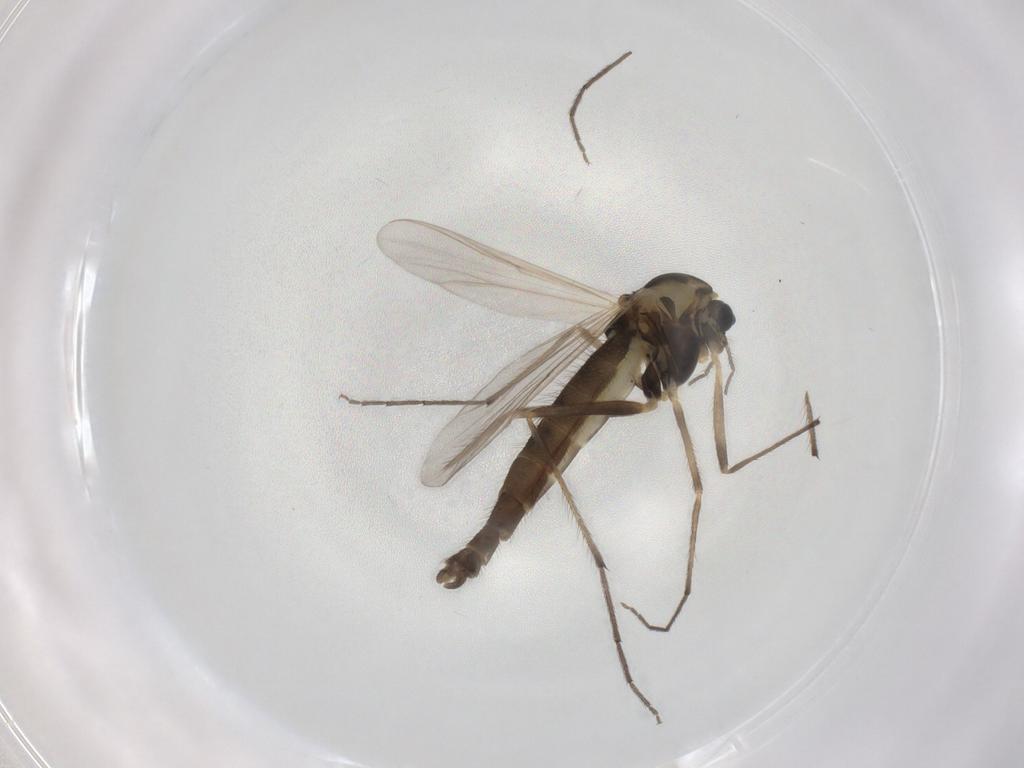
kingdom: Animalia
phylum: Arthropoda
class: Insecta
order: Diptera
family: Chironomidae
